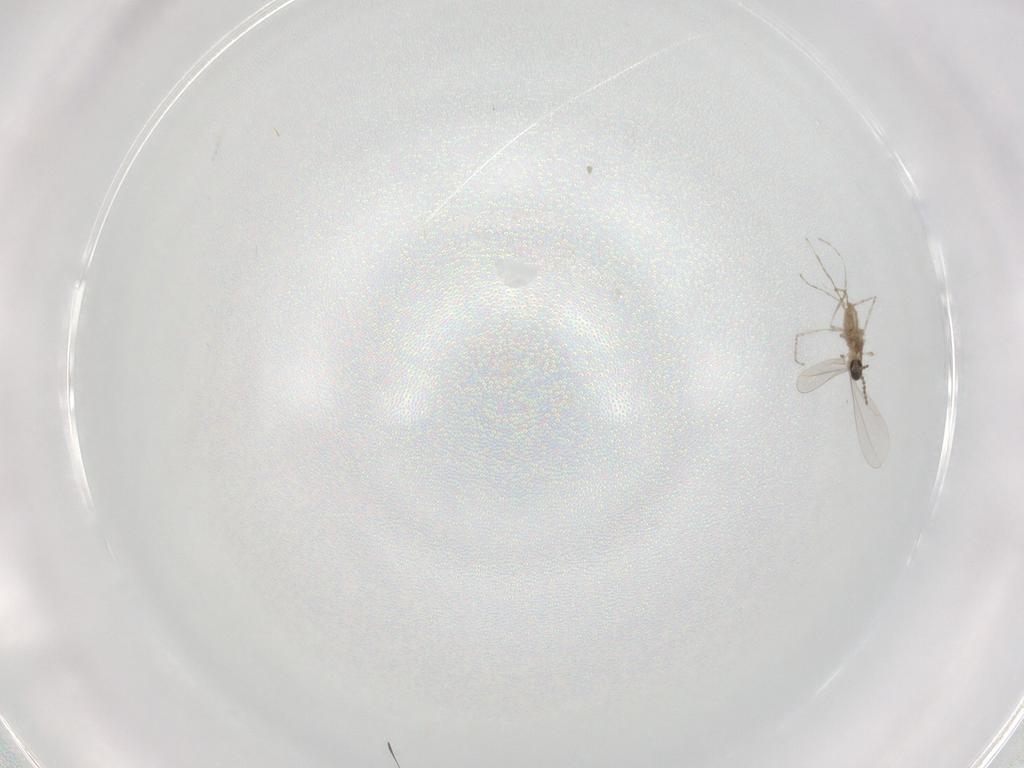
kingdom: Animalia
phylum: Arthropoda
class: Insecta
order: Diptera
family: Cecidomyiidae
